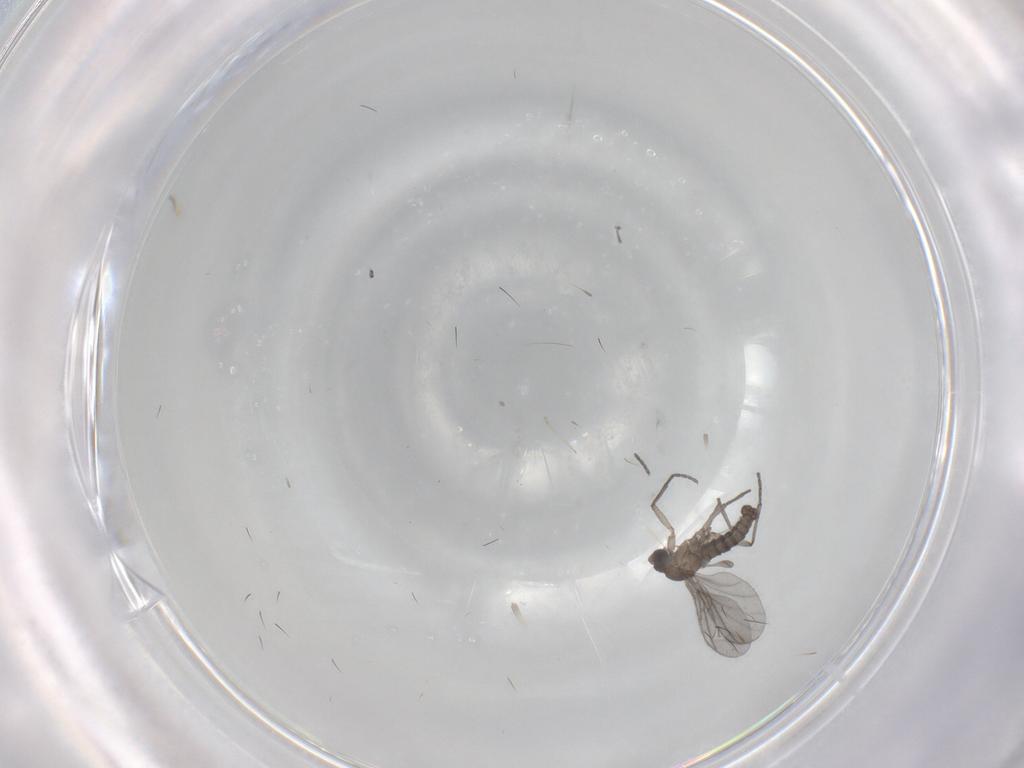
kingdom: Animalia
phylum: Arthropoda
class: Insecta
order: Diptera
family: Sciaridae
